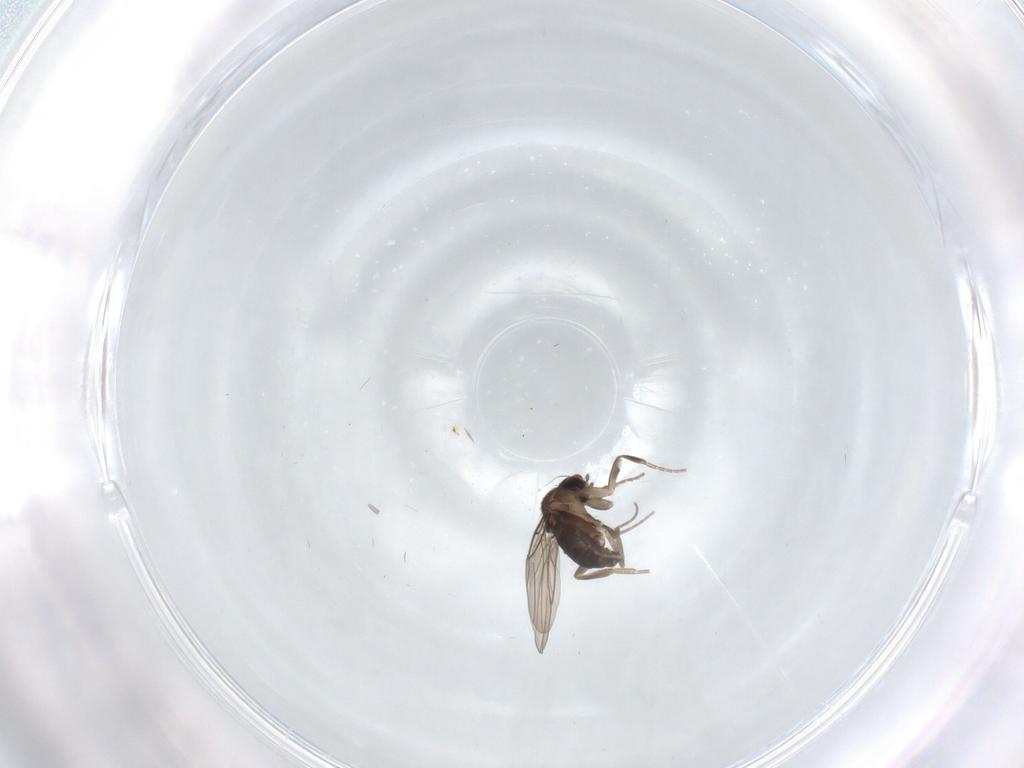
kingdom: Animalia
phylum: Arthropoda
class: Insecta
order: Diptera
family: Phoridae
